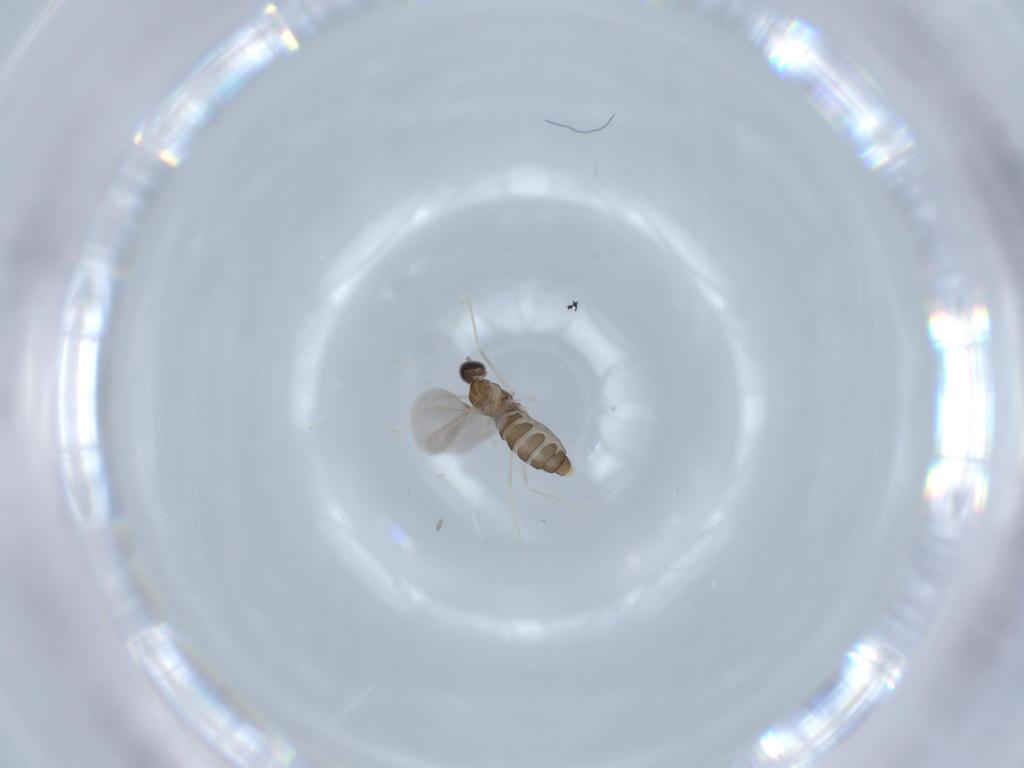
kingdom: Animalia
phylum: Arthropoda
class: Insecta
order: Diptera
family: Cecidomyiidae
